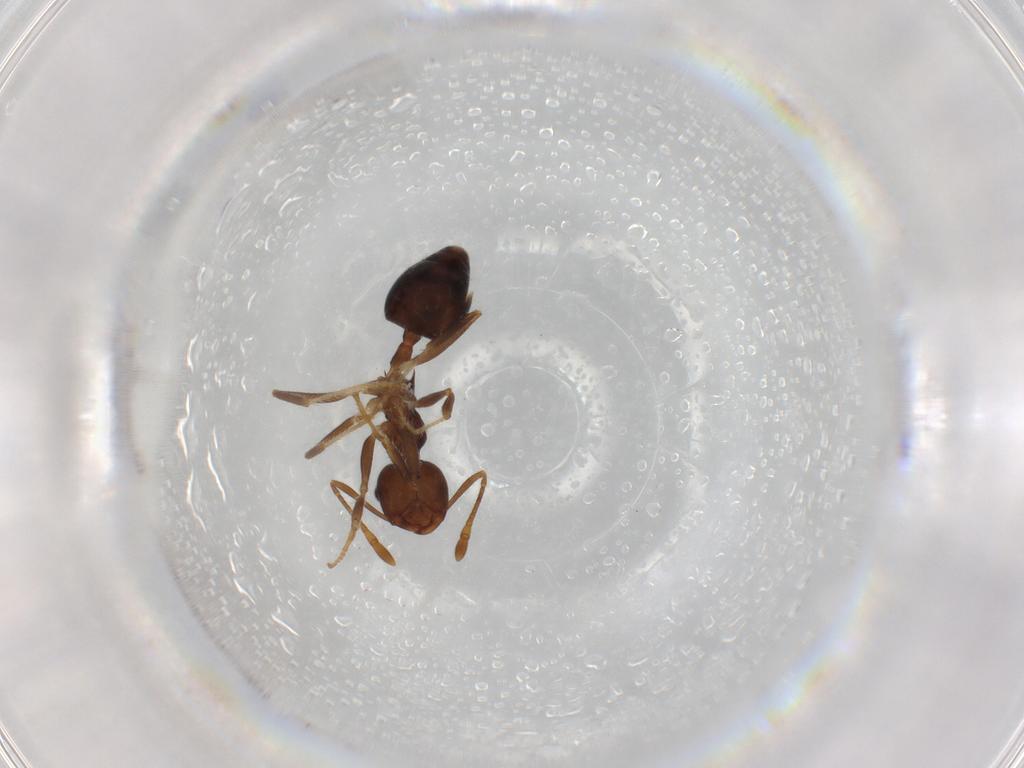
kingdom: Animalia
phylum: Arthropoda
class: Insecta
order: Hymenoptera
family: Formicidae
